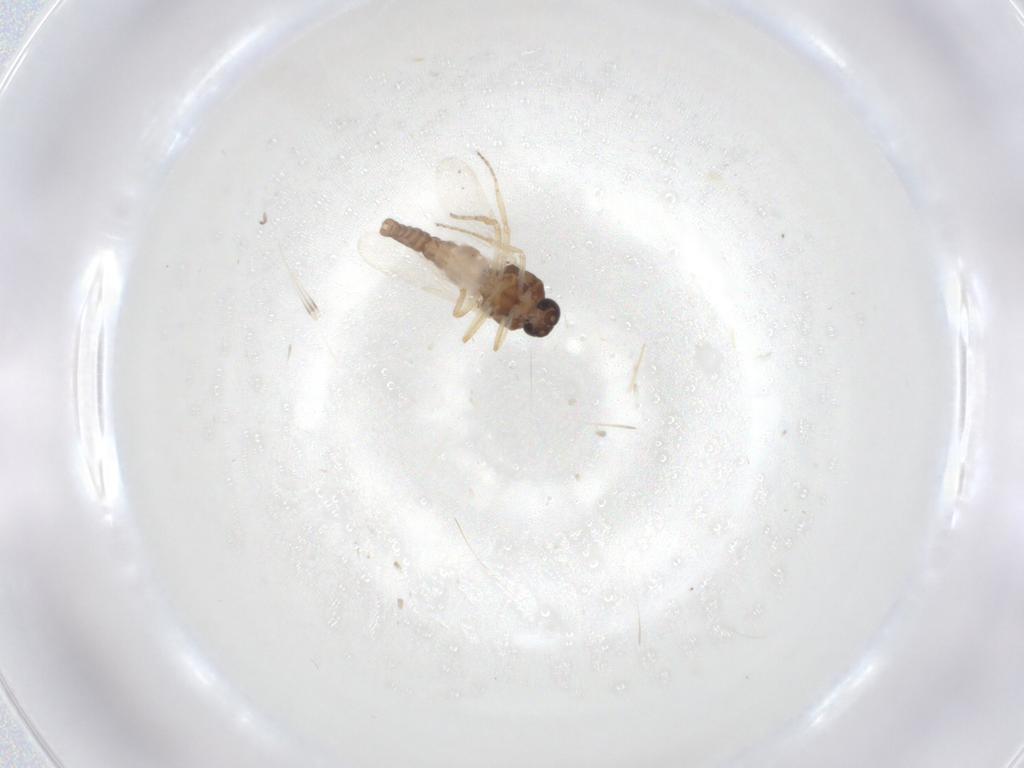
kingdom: Animalia
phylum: Arthropoda
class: Insecta
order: Diptera
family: Ceratopogonidae
